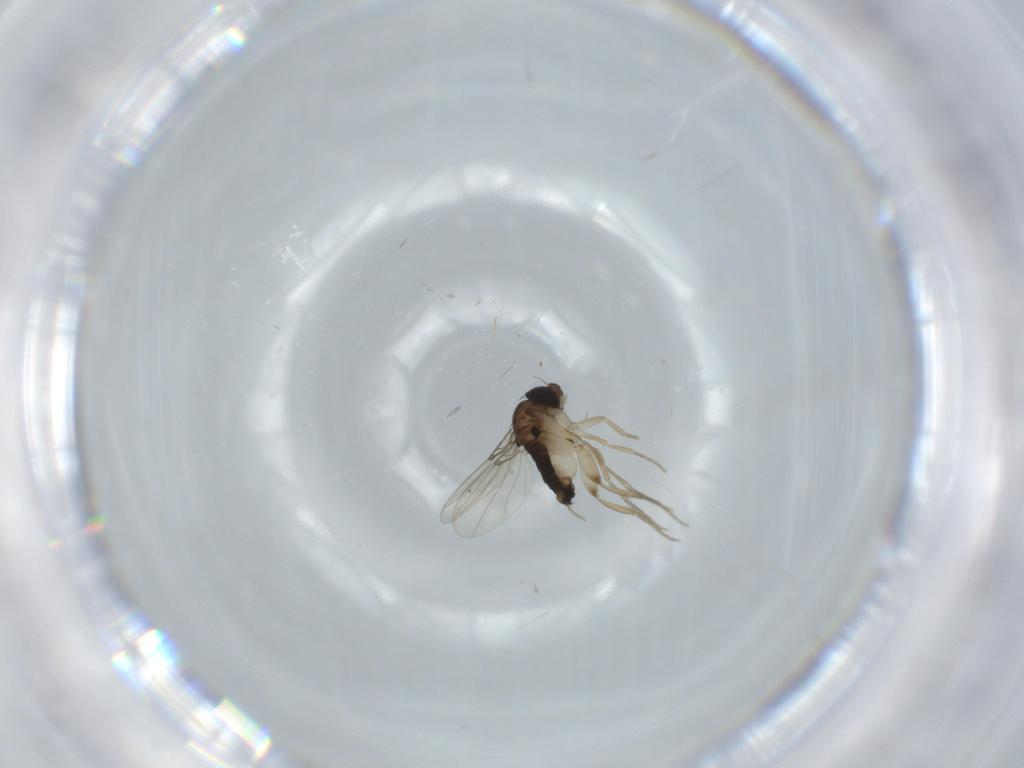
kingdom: Animalia
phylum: Arthropoda
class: Insecta
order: Diptera
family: Phoridae
